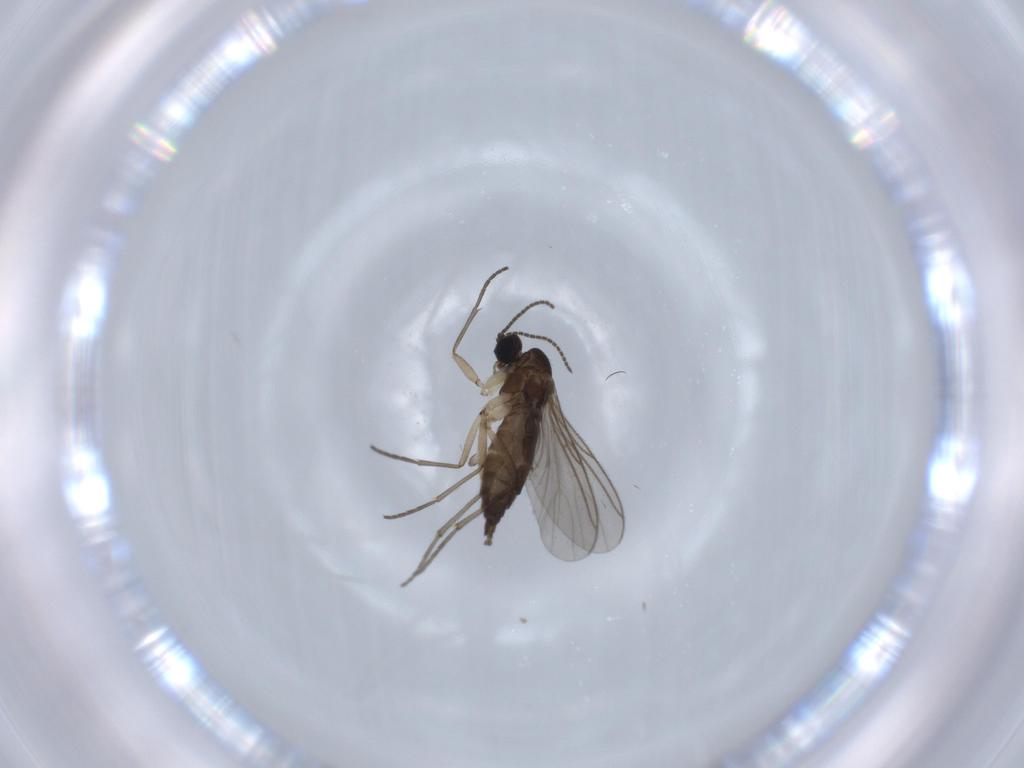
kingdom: Animalia
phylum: Arthropoda
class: Insecta
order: Diptera
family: Sciaridae
